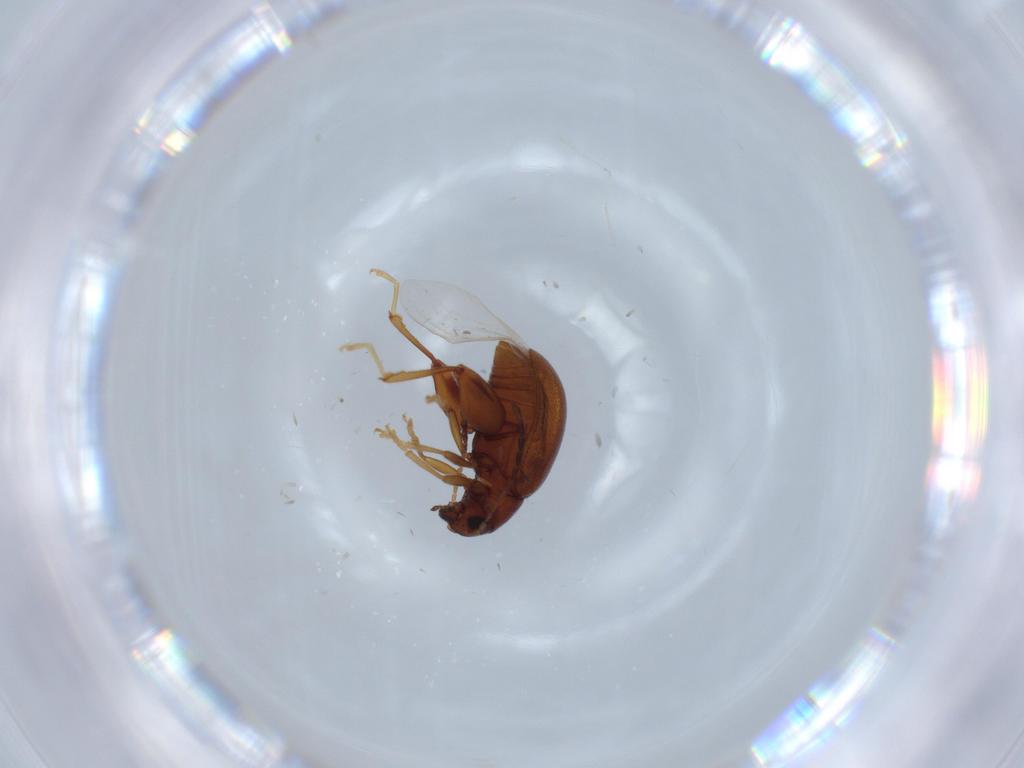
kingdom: Animalia
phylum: Arthropoda
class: Insecta
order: Coleoptera
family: Chrysomelidae
